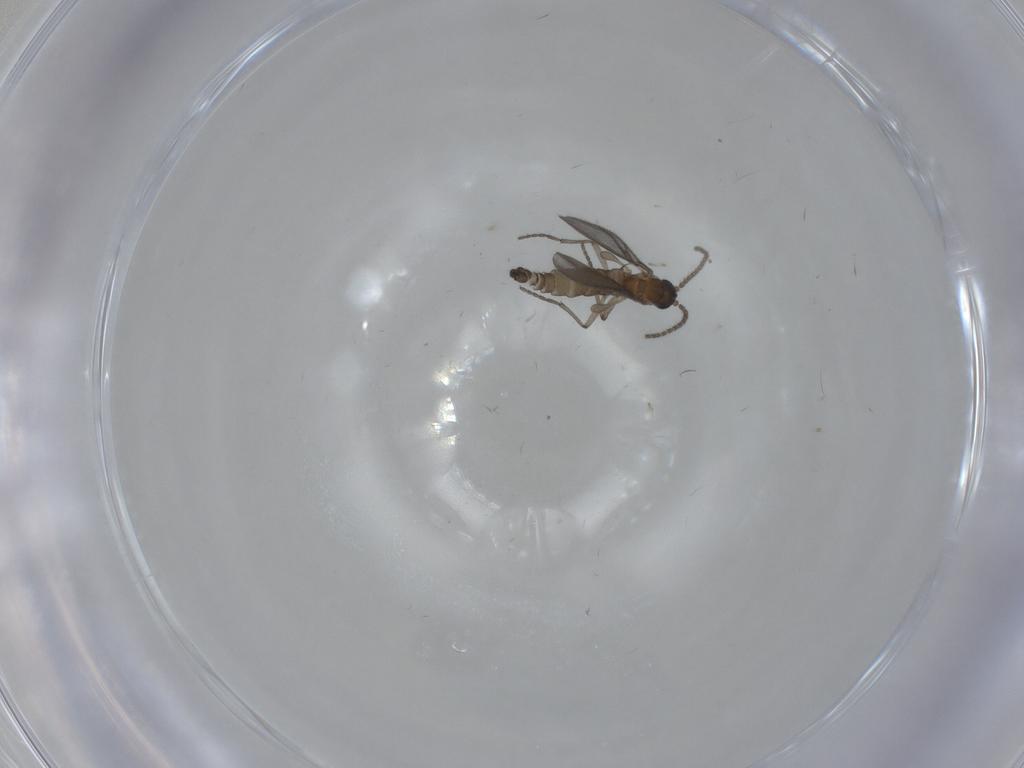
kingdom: Animalia
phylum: Arthropoda
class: Insecta
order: Diptera
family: Sciaridae
